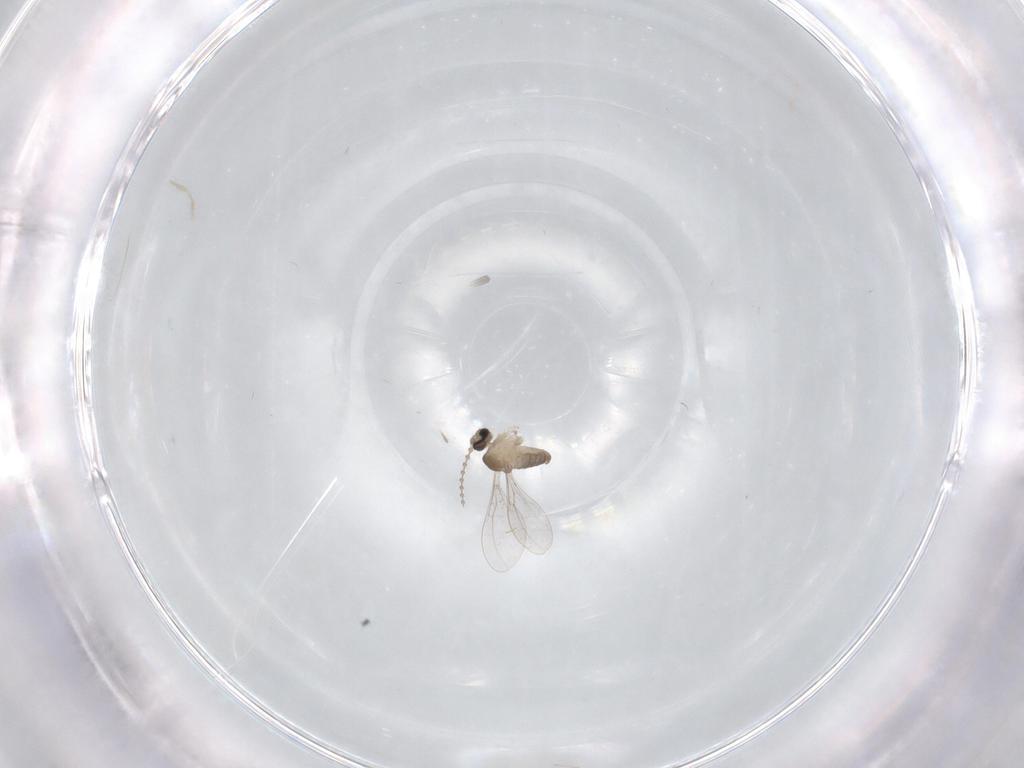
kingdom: Animalia
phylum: Arthropoda
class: Insecta
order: Diptera
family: Cecidomyiidae
